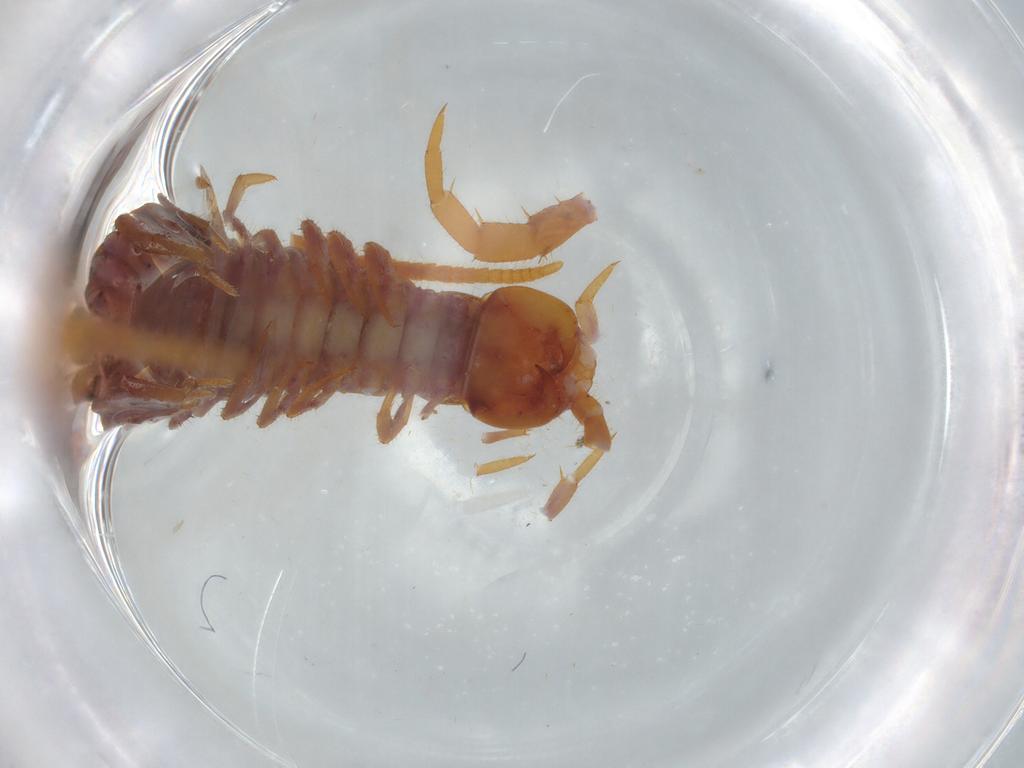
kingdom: Animalia
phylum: Arthropoda
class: Chilopoda
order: Lithobiomorpha
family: Lithobiidae
